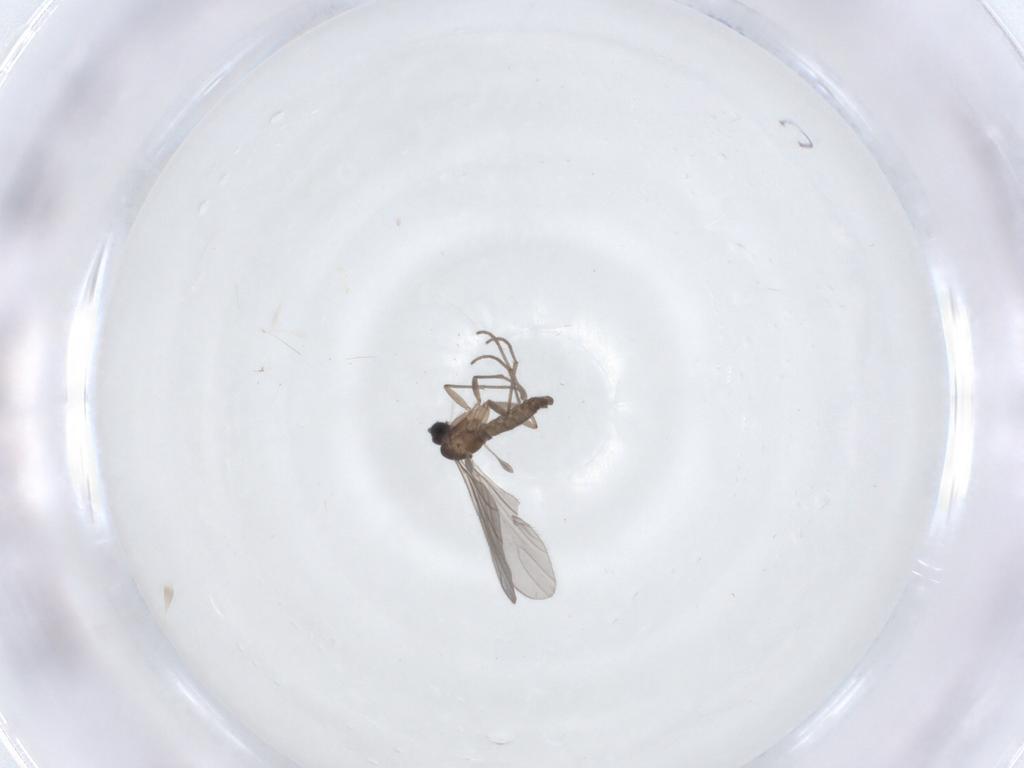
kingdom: Animalia
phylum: Arthropoda
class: Insecta
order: Diptera
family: Sciaridae
